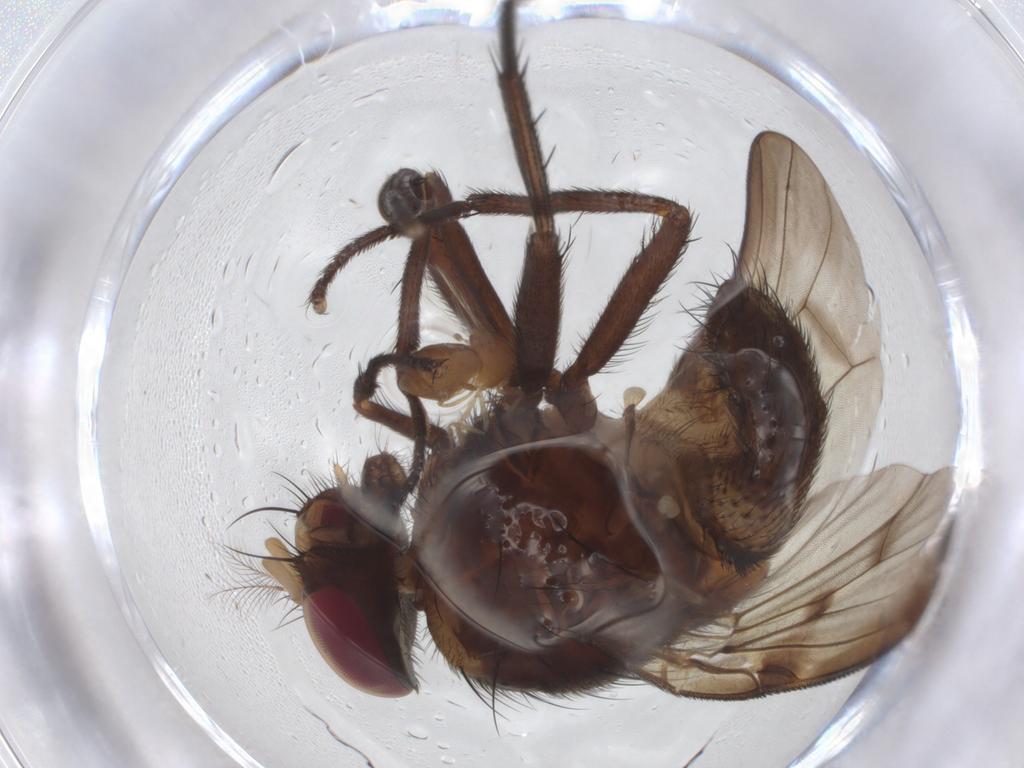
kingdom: Animalia
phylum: Arthropoda
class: Insecta
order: Diptera
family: Muscidae
